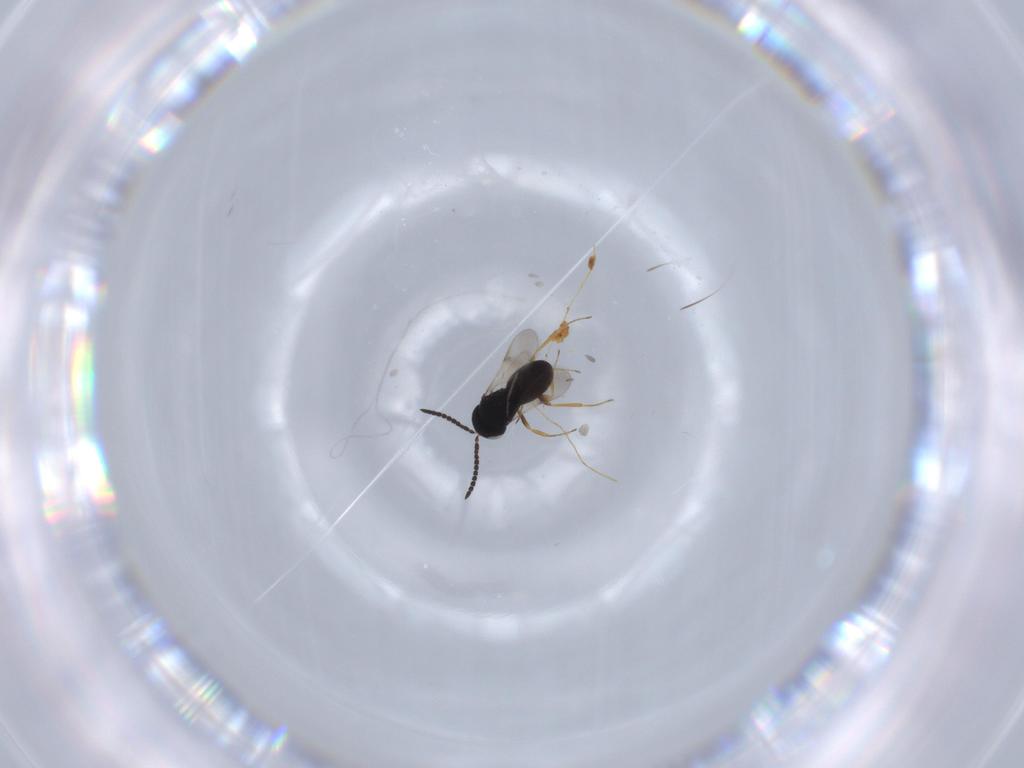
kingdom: Animalia
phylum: Arthropoda
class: Insecta
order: Hymenoptera
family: Scelionidae
